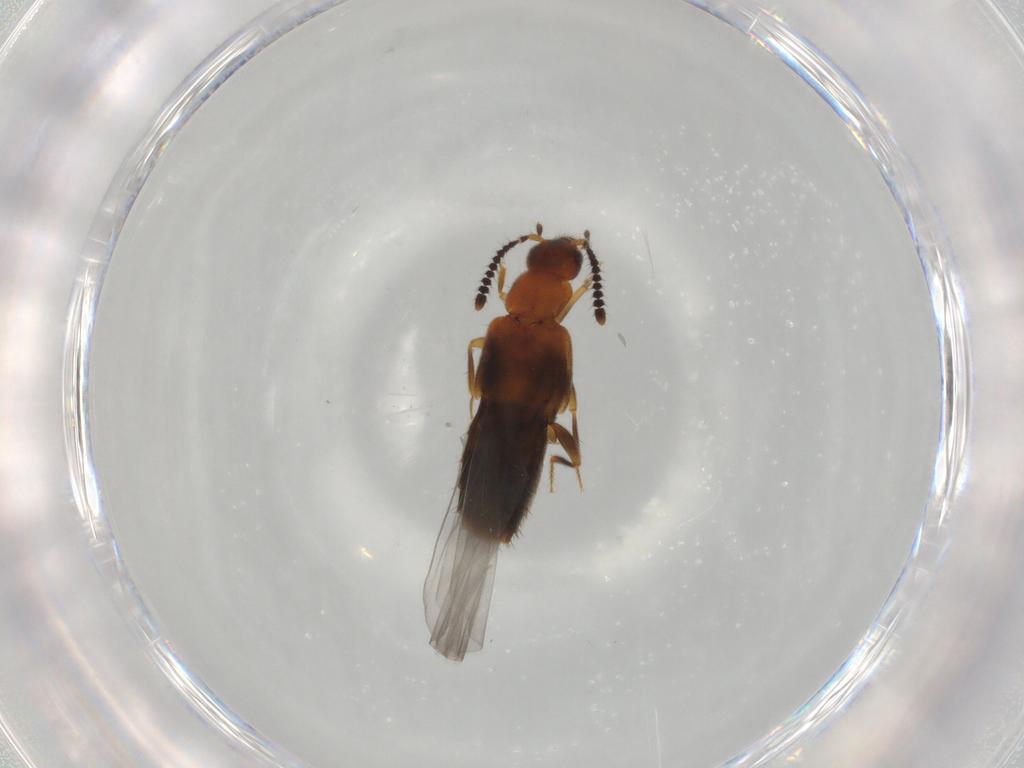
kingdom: Animalia
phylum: Arthropoda
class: Insecta
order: Coleoptera
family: Staphylinidae
